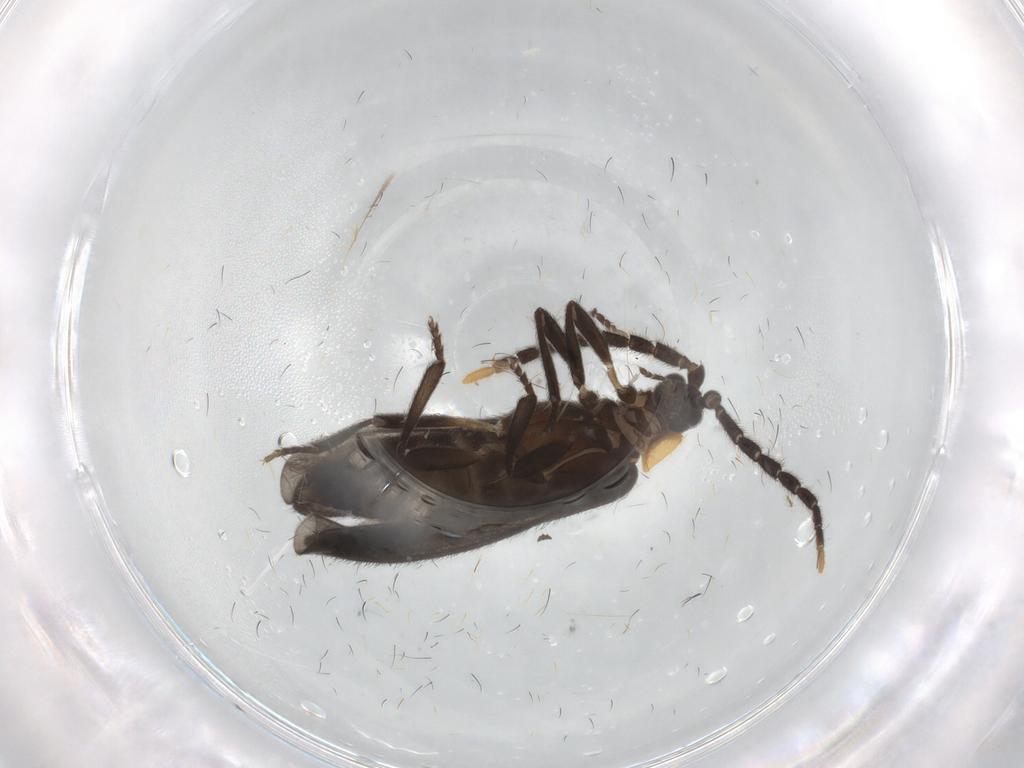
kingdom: Animalia
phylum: Arthropoda
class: Insecta
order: Coleoptera
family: Lycidae
